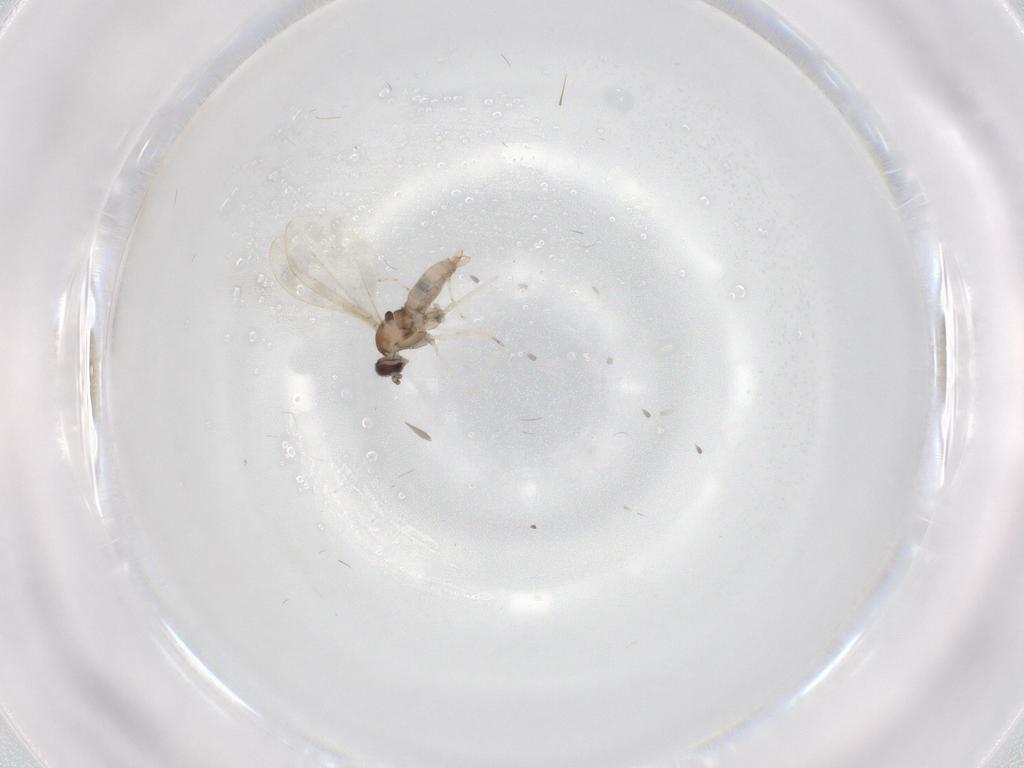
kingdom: Animalia
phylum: Arthropoda
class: Insecta
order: Diptera
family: Cecidomyiidae
